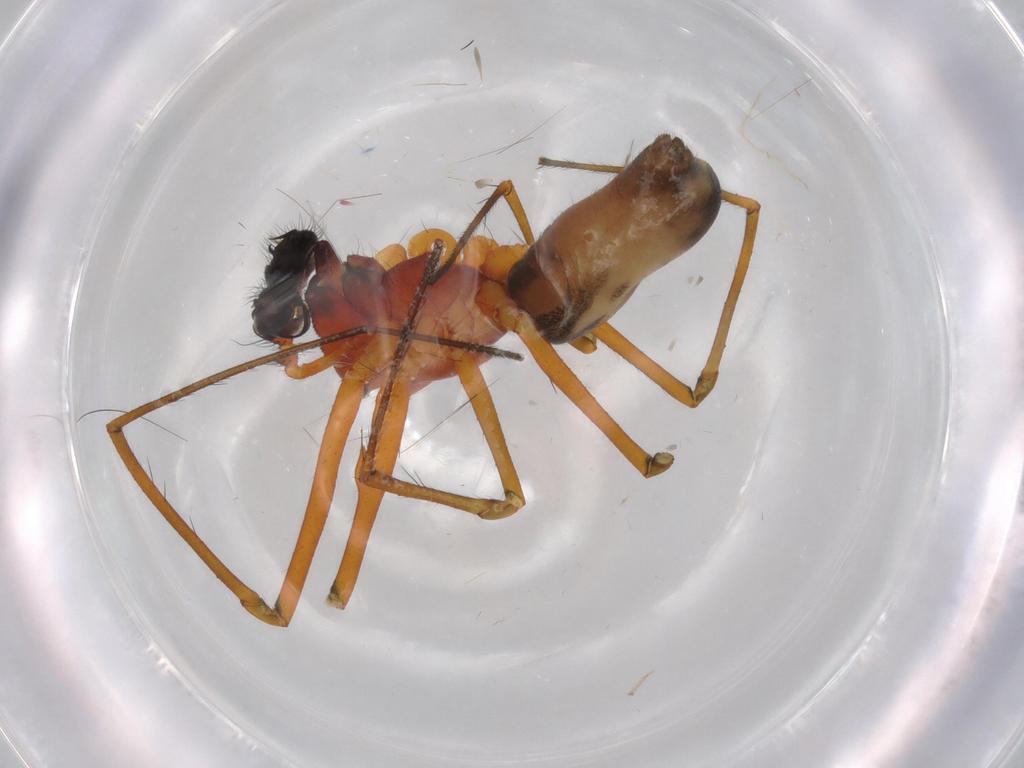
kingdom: Animalia
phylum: Arthropoda
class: Arachnida
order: Araneae
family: Linyphiidae
